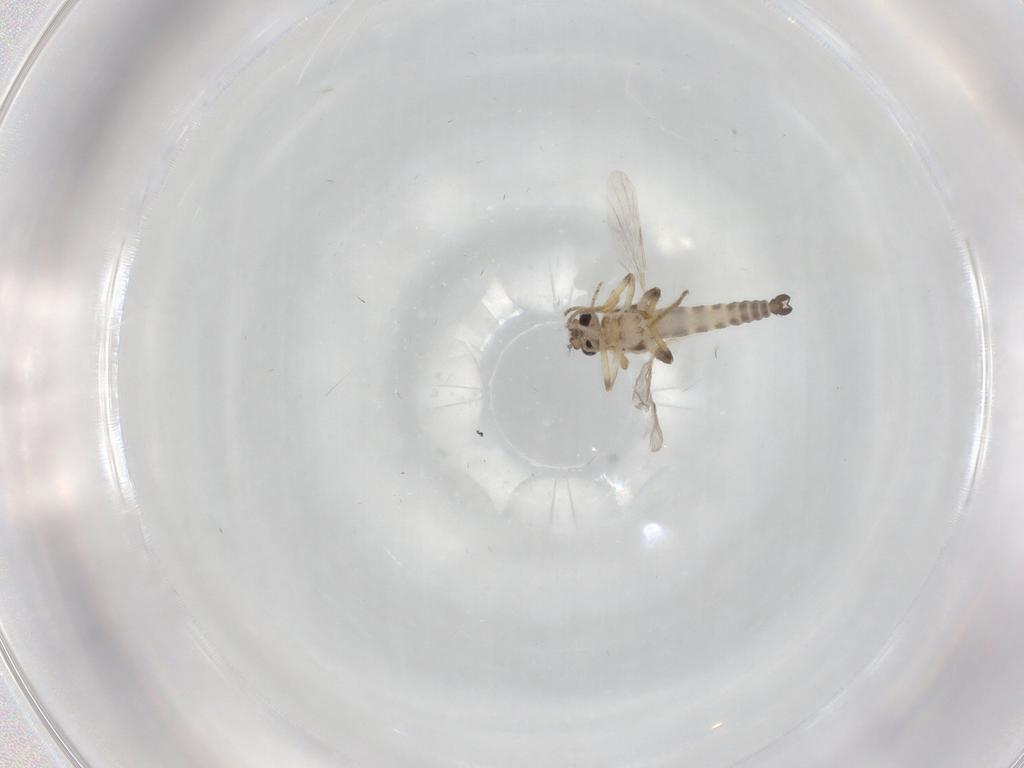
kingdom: Animalia
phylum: Arthropoda
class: Insecta
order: Diptera
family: Cecidomyiidae
